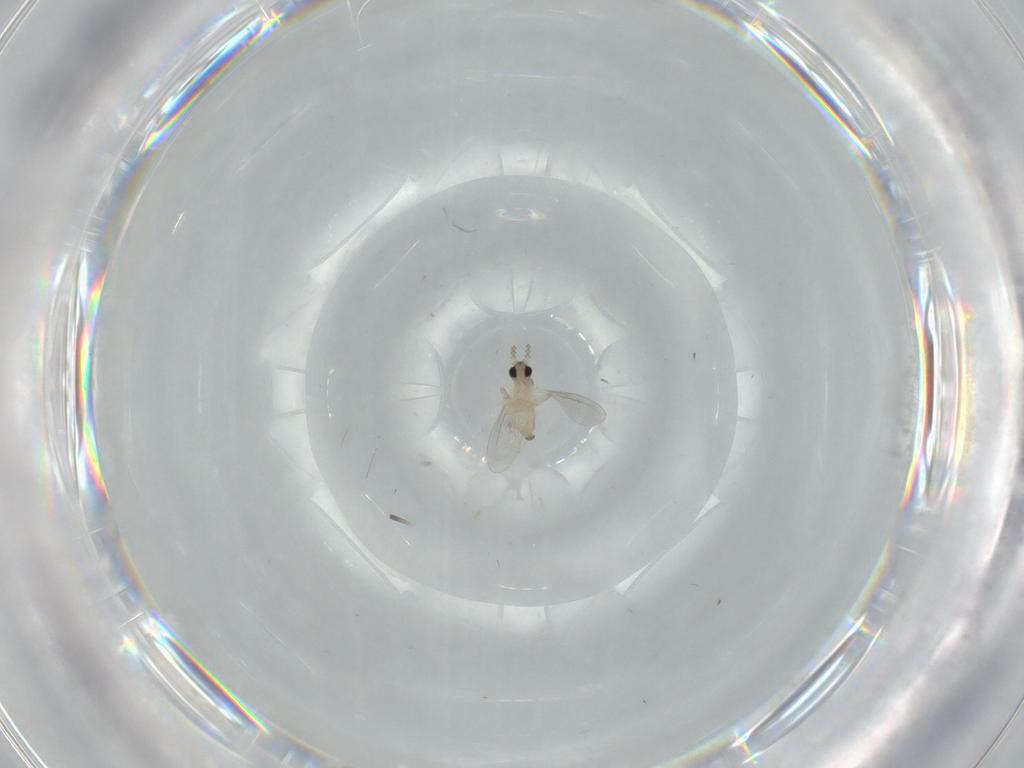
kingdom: Animalia
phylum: Arthropoda
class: Insecta
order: Diptera
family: Cecidomyiidae
